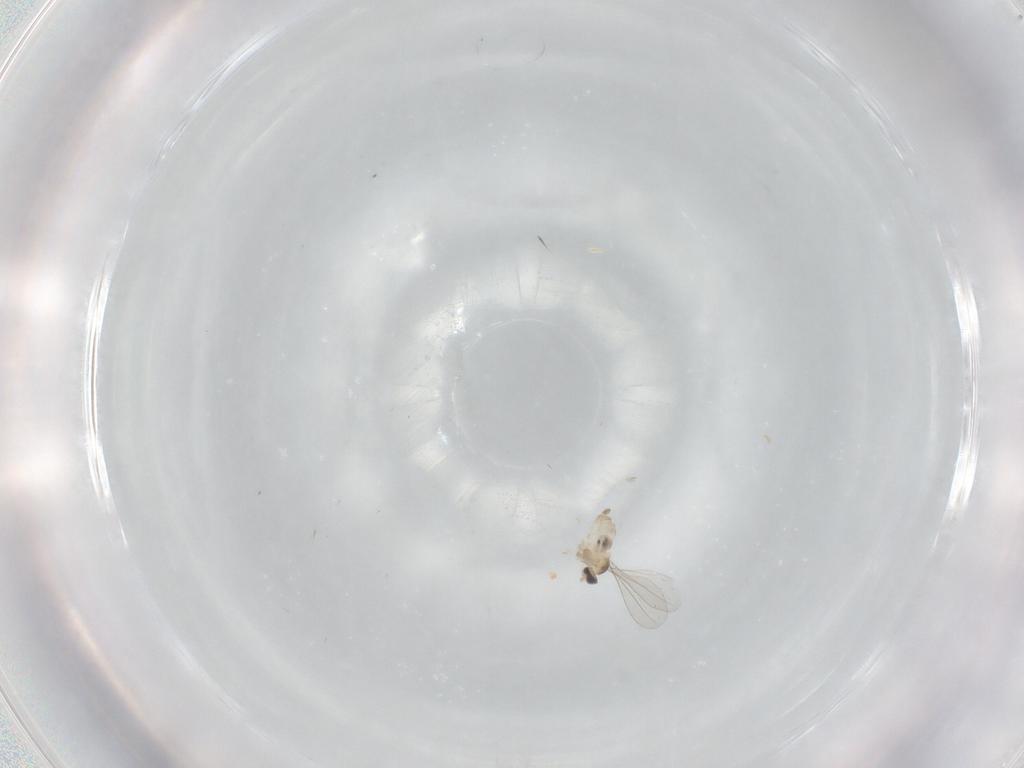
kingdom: Animalia
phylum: Arthropoda
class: Insecta
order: Diptera
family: Cecidomyiidae
